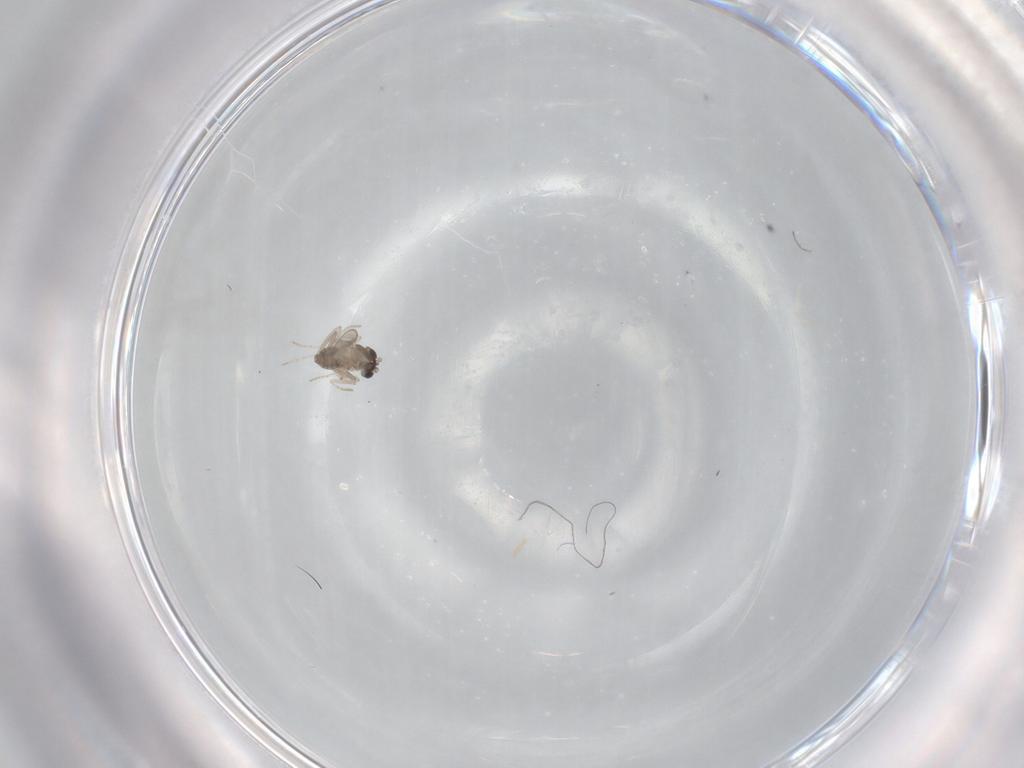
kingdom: Animalia
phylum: Arthropoda
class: Insecta
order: Diptera
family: Cecidomyiidae
